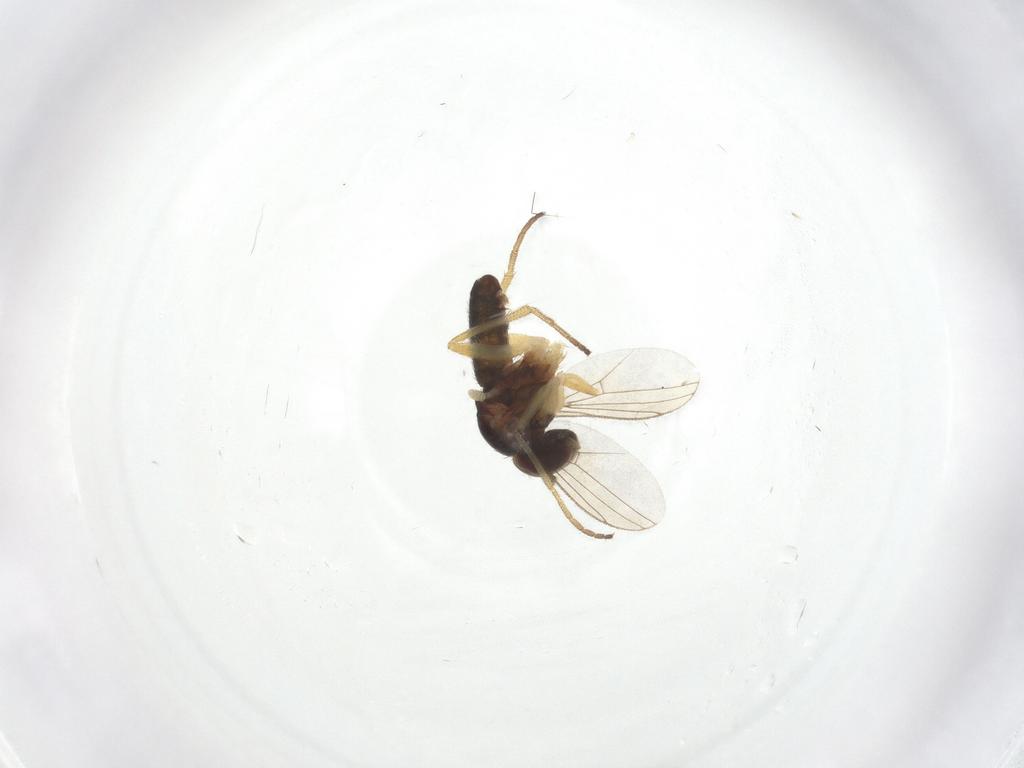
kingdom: Animalia
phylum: Arthropoda
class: Insecta
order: Diptera
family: Dolichopodidae
